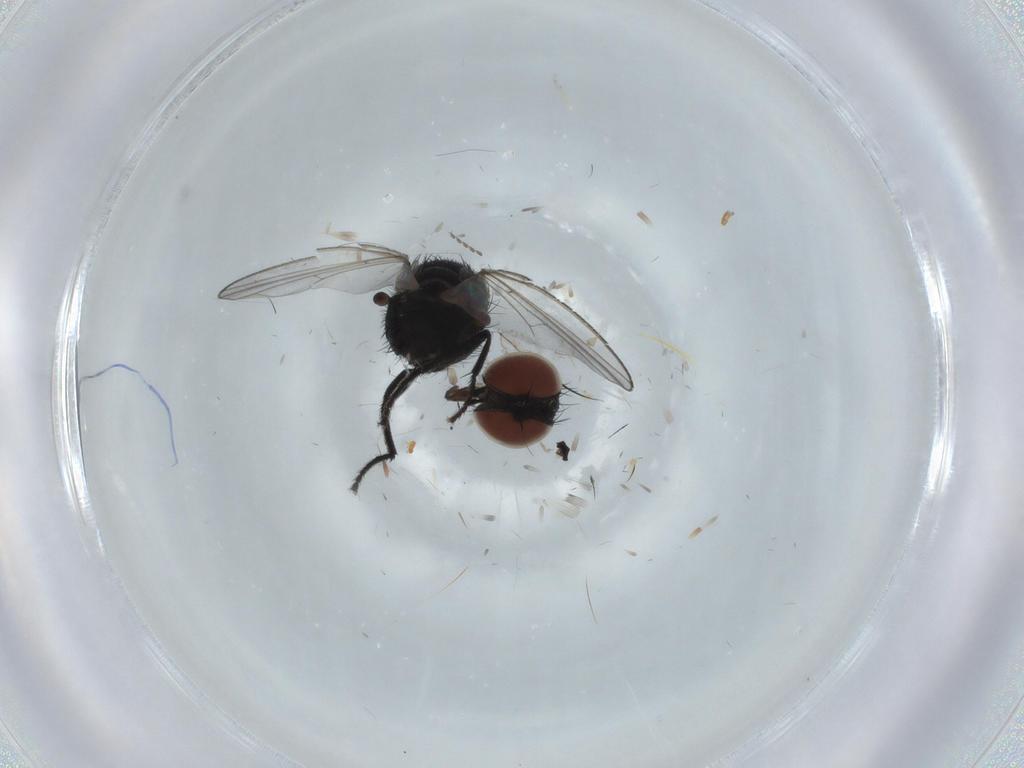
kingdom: Animalia
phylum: Arthropoda
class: Insecta
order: Diptera
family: Milichiidae
